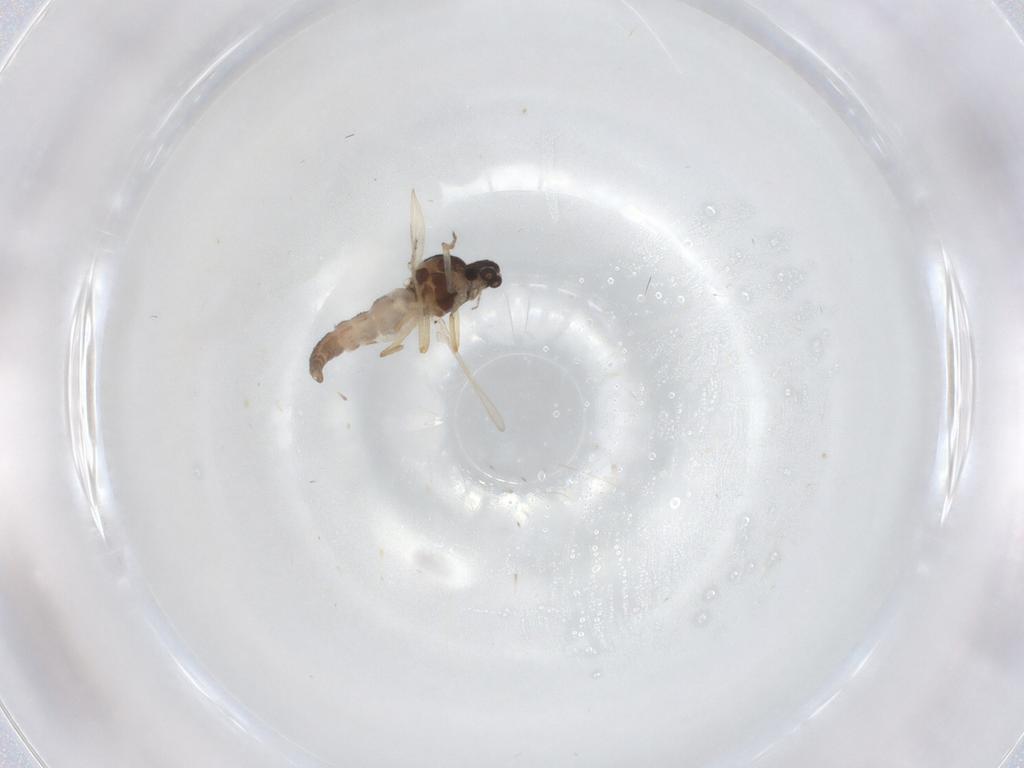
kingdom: Animalia
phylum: Arthropoda
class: Insecta
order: Diptera
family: Ceratopogonidae
